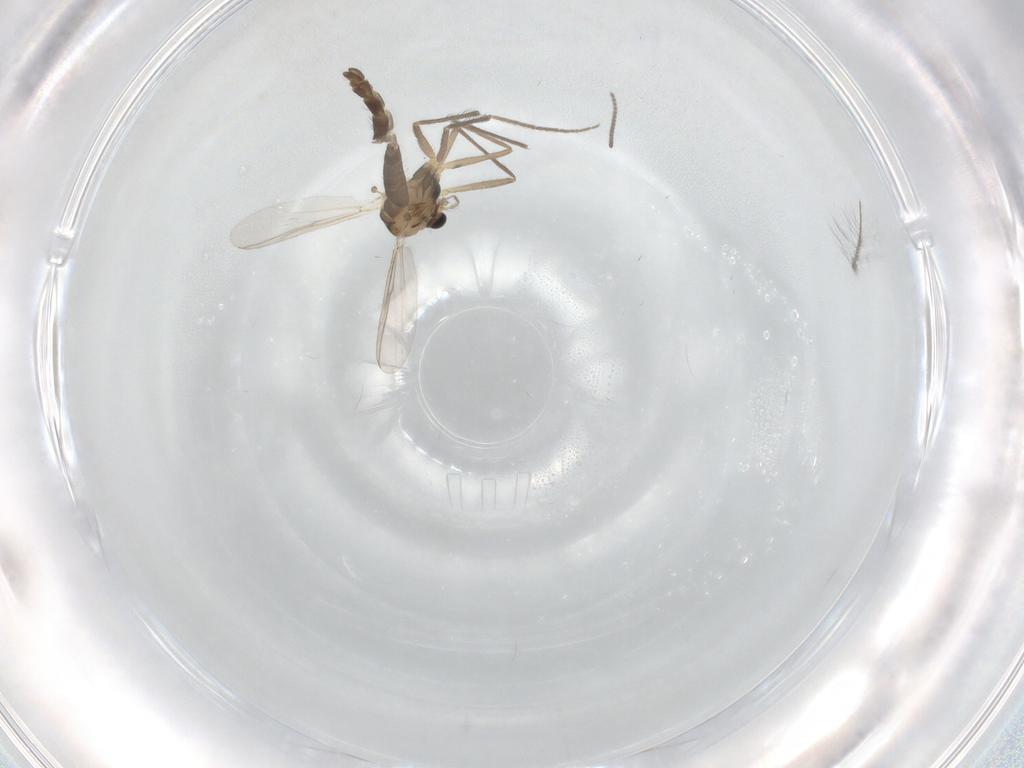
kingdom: Animalia
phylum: Arthropoda
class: Insecta
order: Diptera
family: Chironomidae
